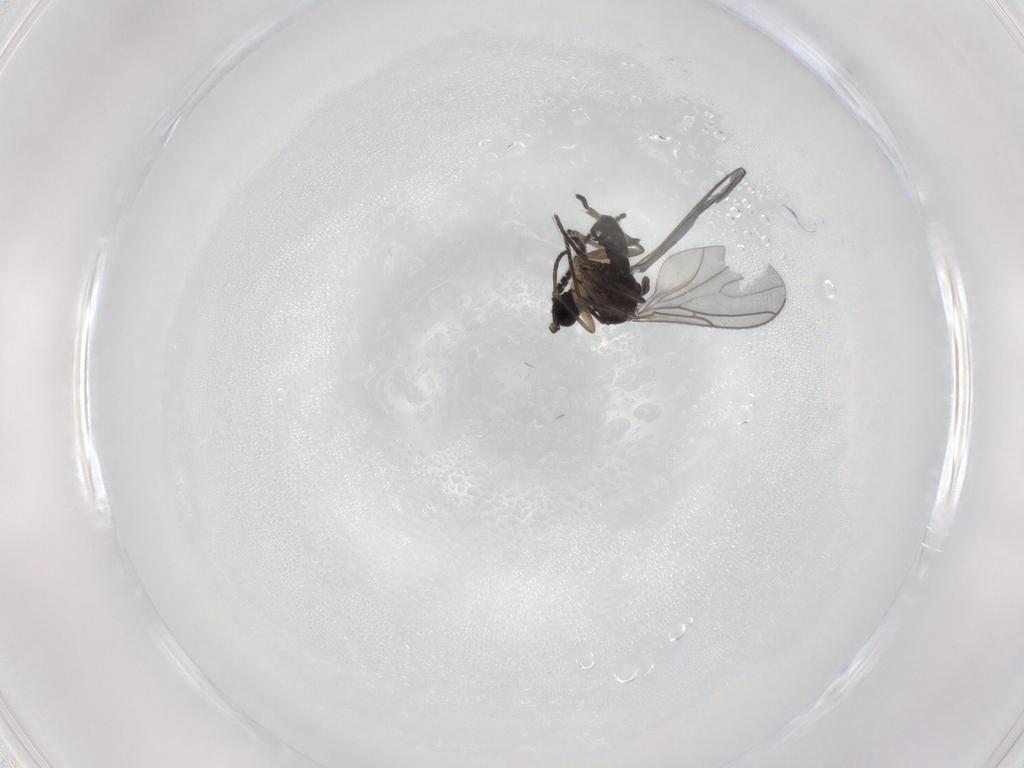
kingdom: Animalia
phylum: Arthropoda
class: Insecta
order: Diptera
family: Sciaridae
